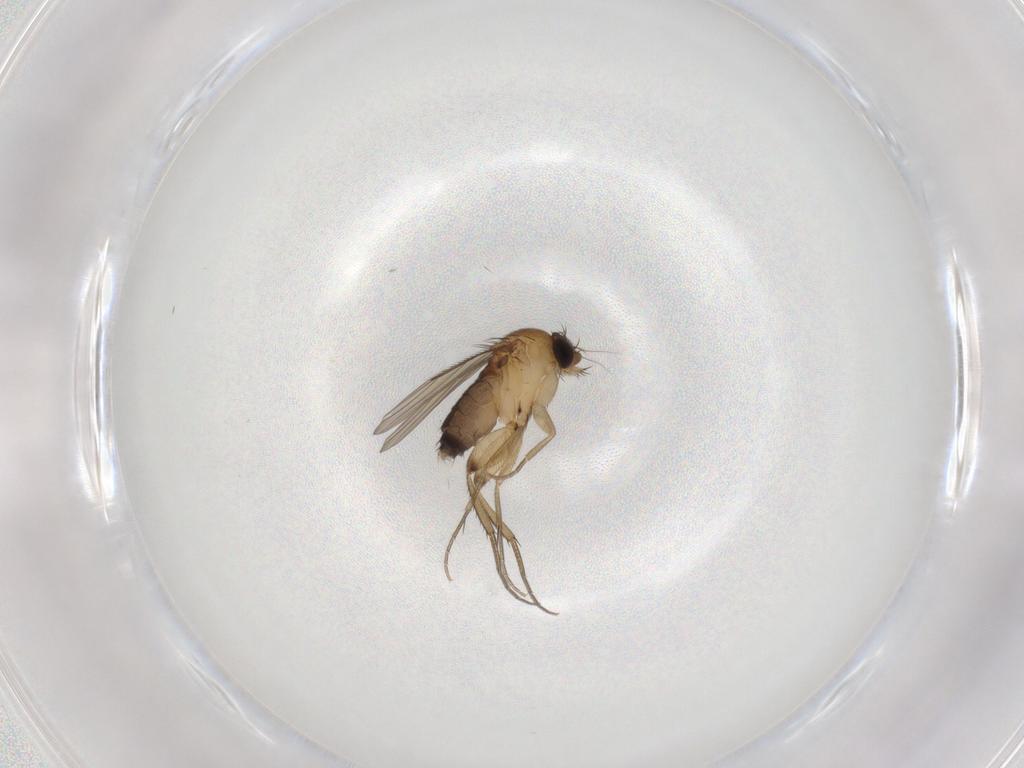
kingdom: Animalia
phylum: Arthropoda
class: Insecta
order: Diptera
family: Phoridae
